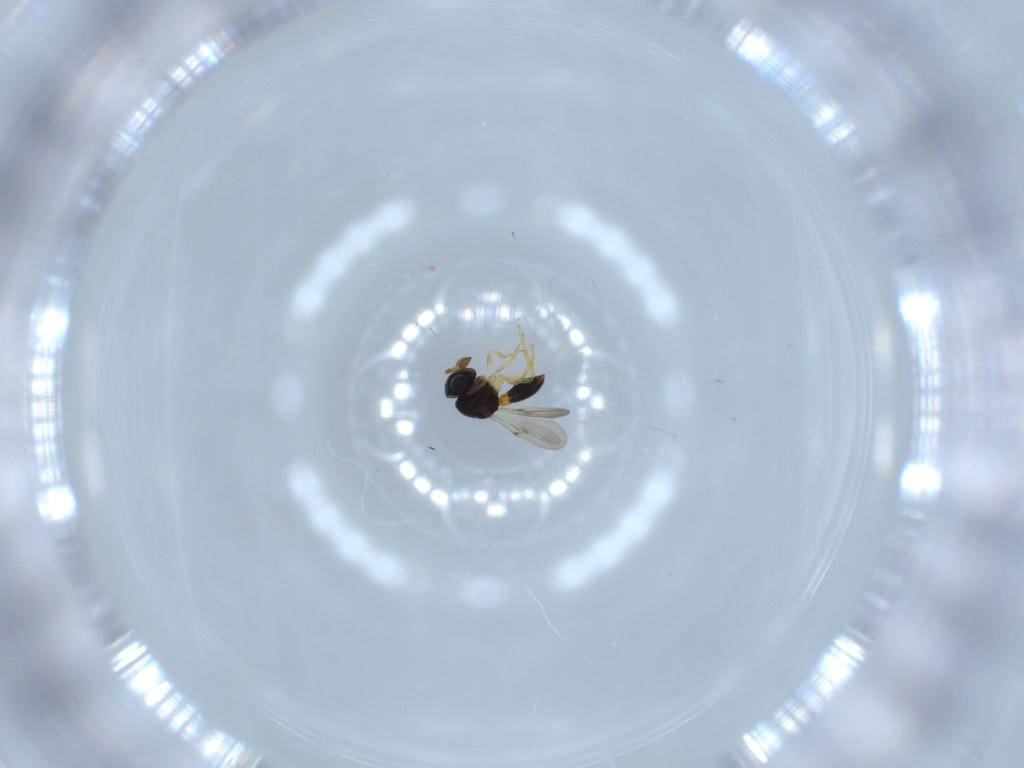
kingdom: Animalia
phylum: Arthropoda
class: Insecta
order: Hymenoptera
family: Scelionidae
